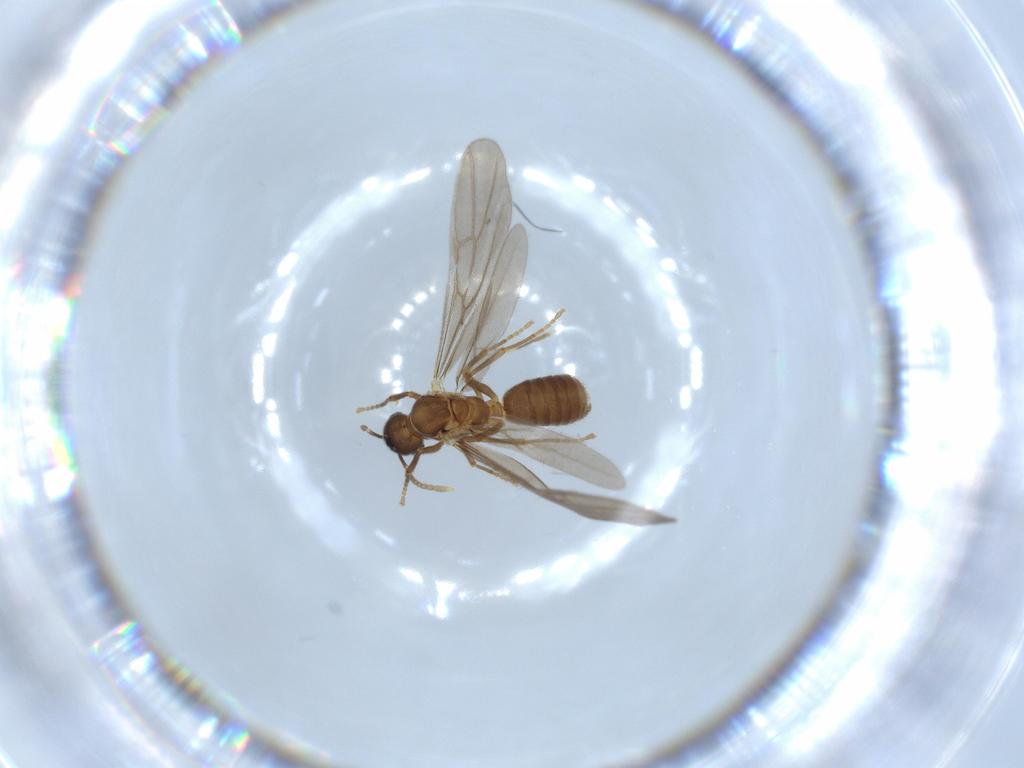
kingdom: Animalia
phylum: Arthropoda
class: Insecta
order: Hymenoptera
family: Formicidae
